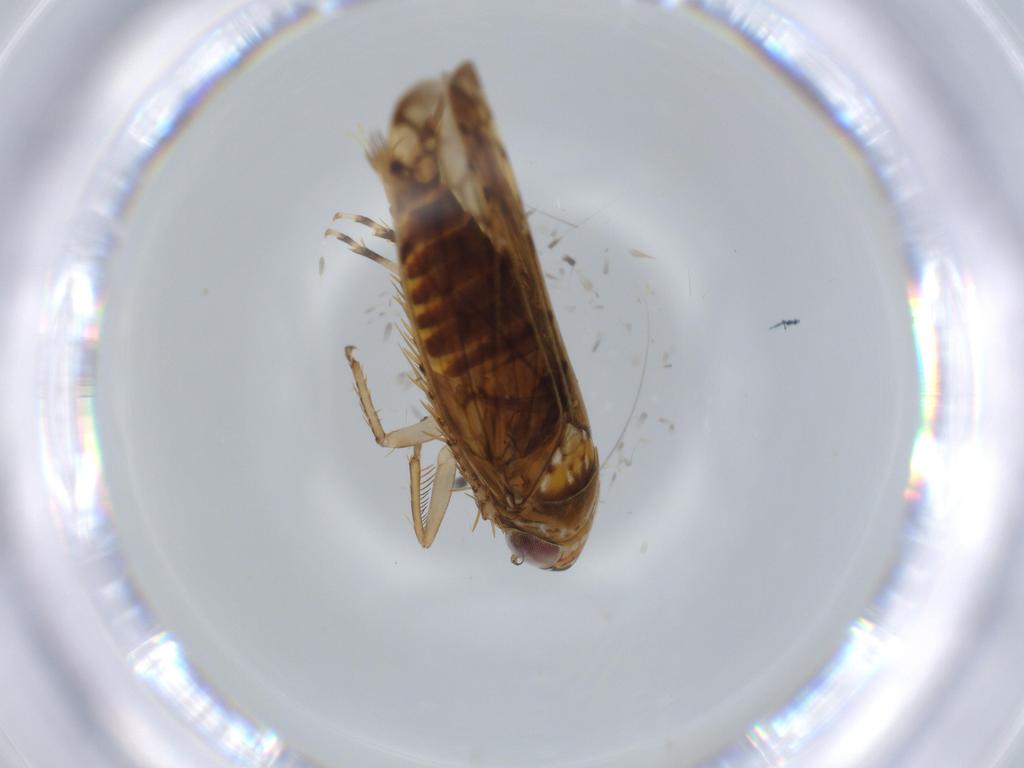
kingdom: Animalia
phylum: Arthropoda
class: Insecta
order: Hemiptera
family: Cicadellidae
